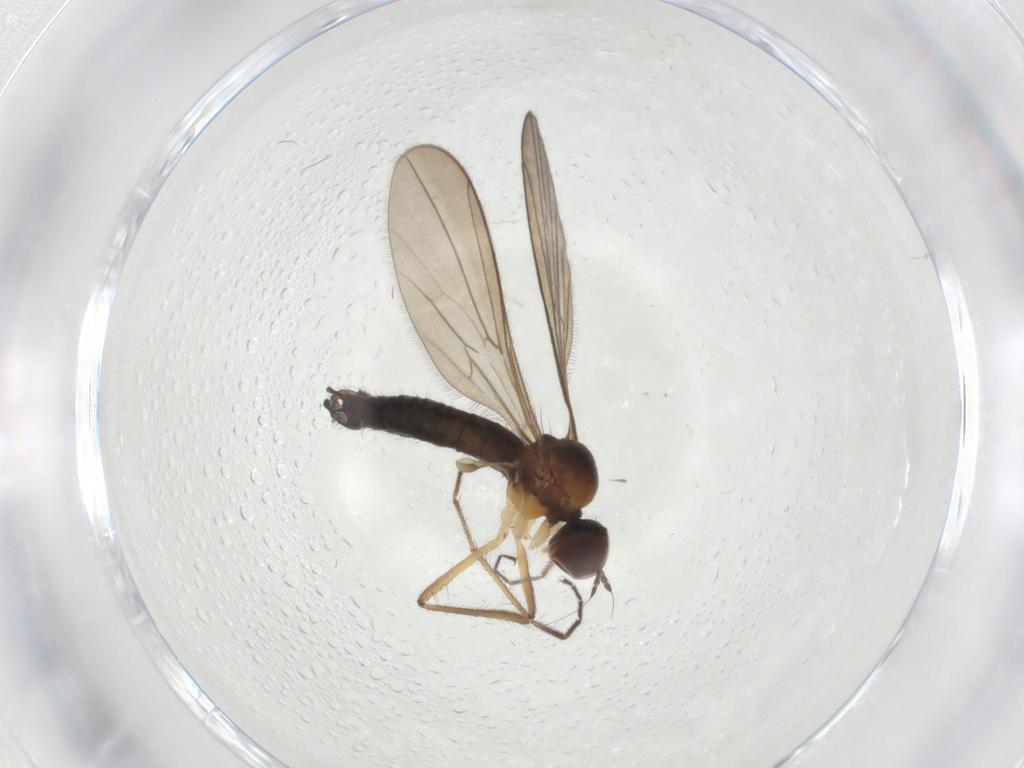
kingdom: Animalia
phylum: Arthropoda
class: Insecta
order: Diptera
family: Hybotidae
